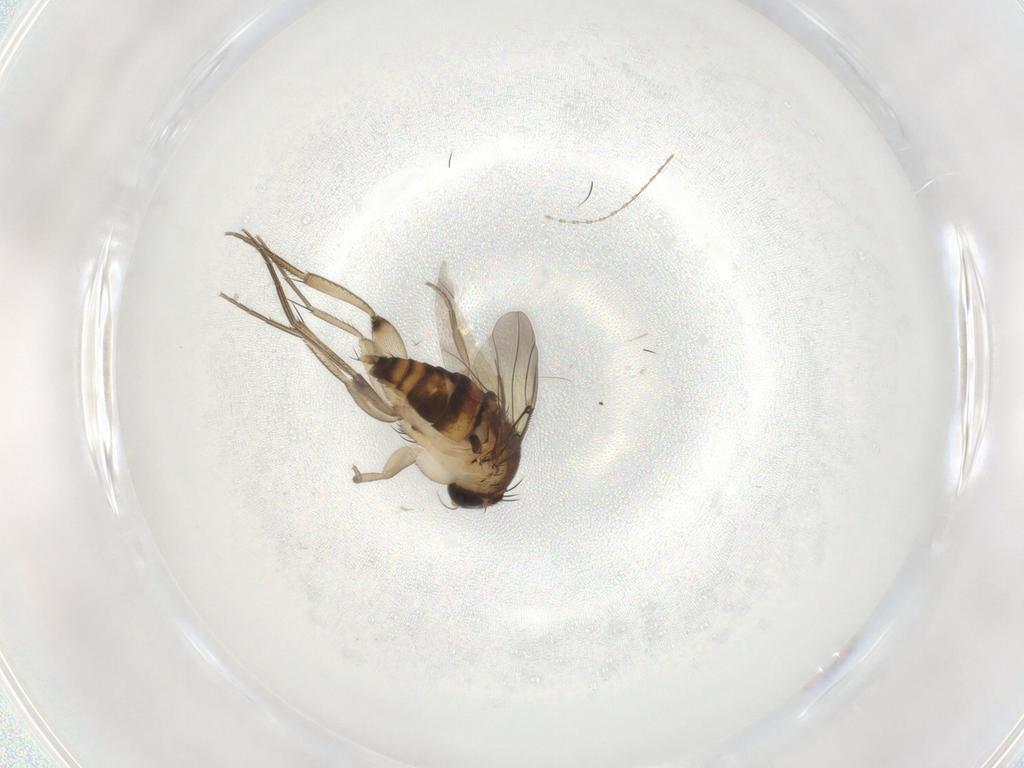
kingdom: Animalia
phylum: Arthropoda
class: Insecta
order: Diptera
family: Phoridae
